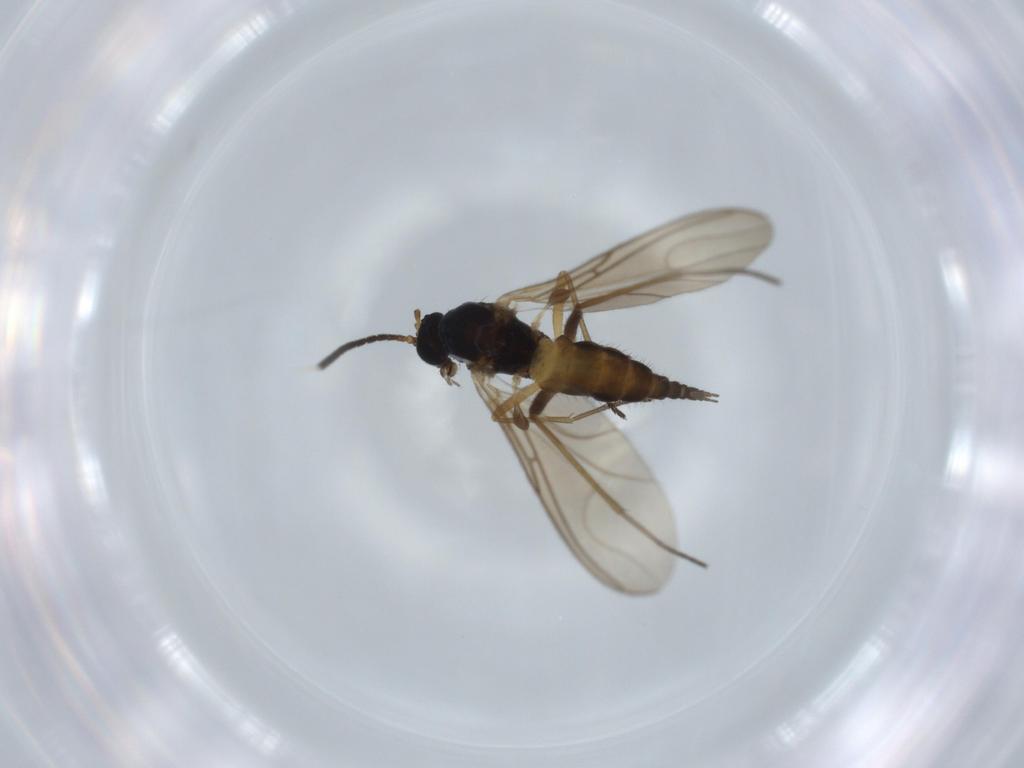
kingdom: Animalia
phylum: Arthropoda
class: Insecta
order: Diptera
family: Sciaridae
